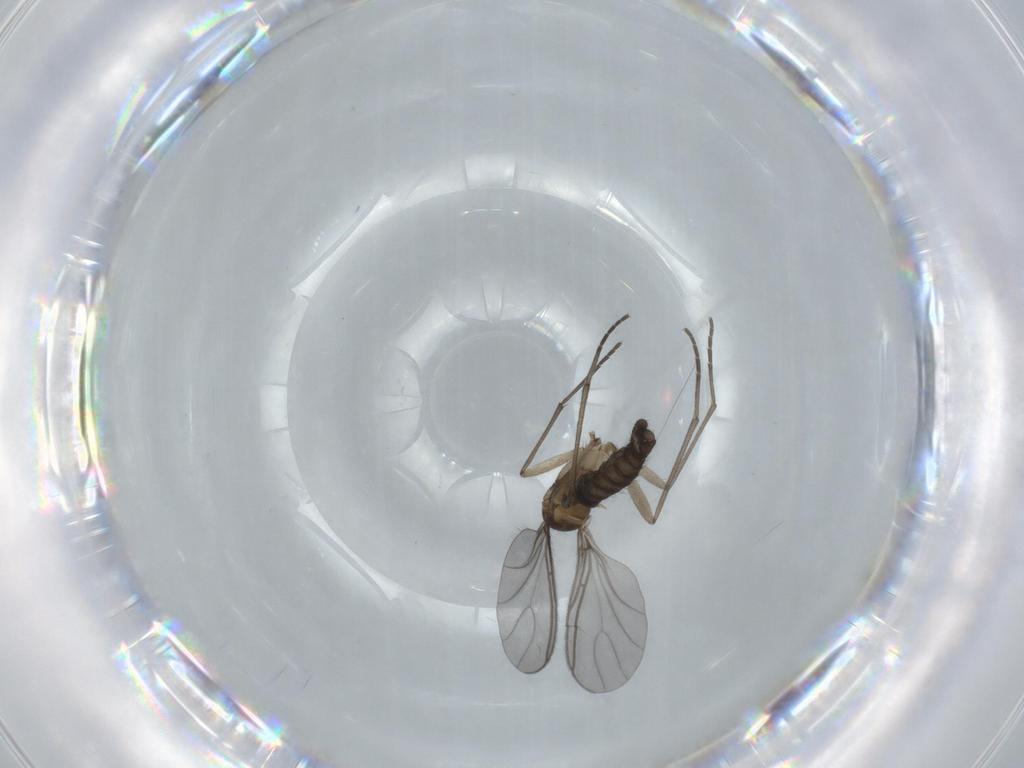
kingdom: Animalia
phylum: Arthropoda
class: Insecta
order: Diptera
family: Sciaridae
